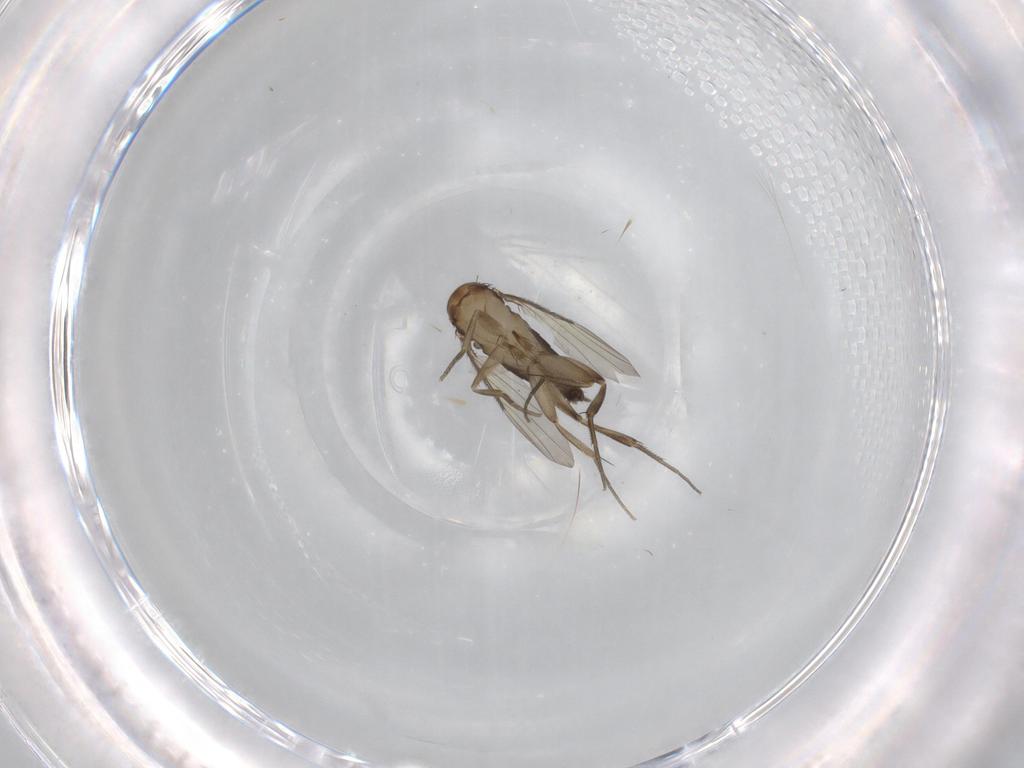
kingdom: Animalia
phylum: Arthropoda
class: Insecta
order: Diptera
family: Phoridae
